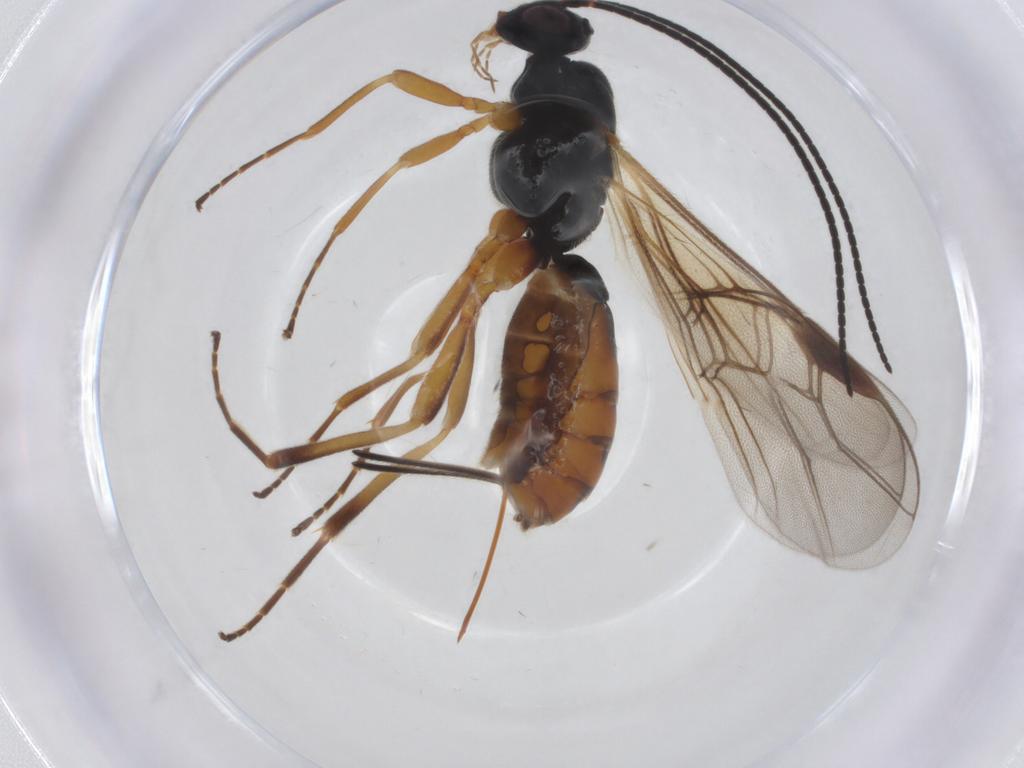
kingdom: Animalia
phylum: Arthropoda
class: Insecta
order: Hymenoptera
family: Braconidae
